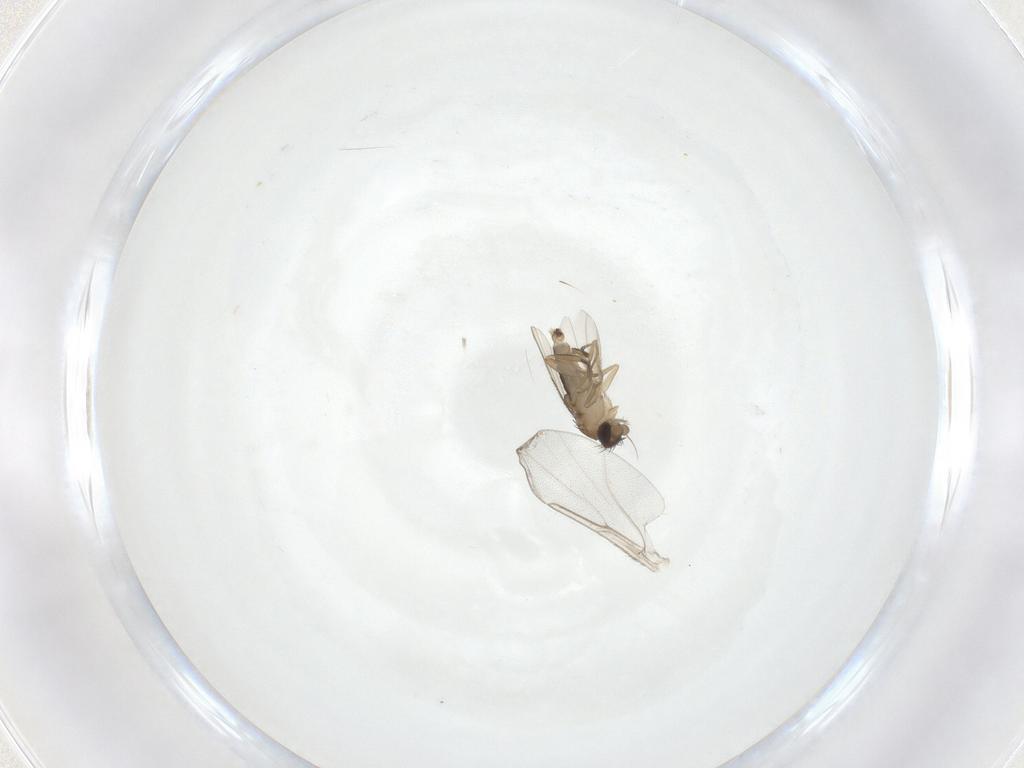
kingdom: Animalia
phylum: Arthropoda
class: Insecta
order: Diptera
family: Phoridae
